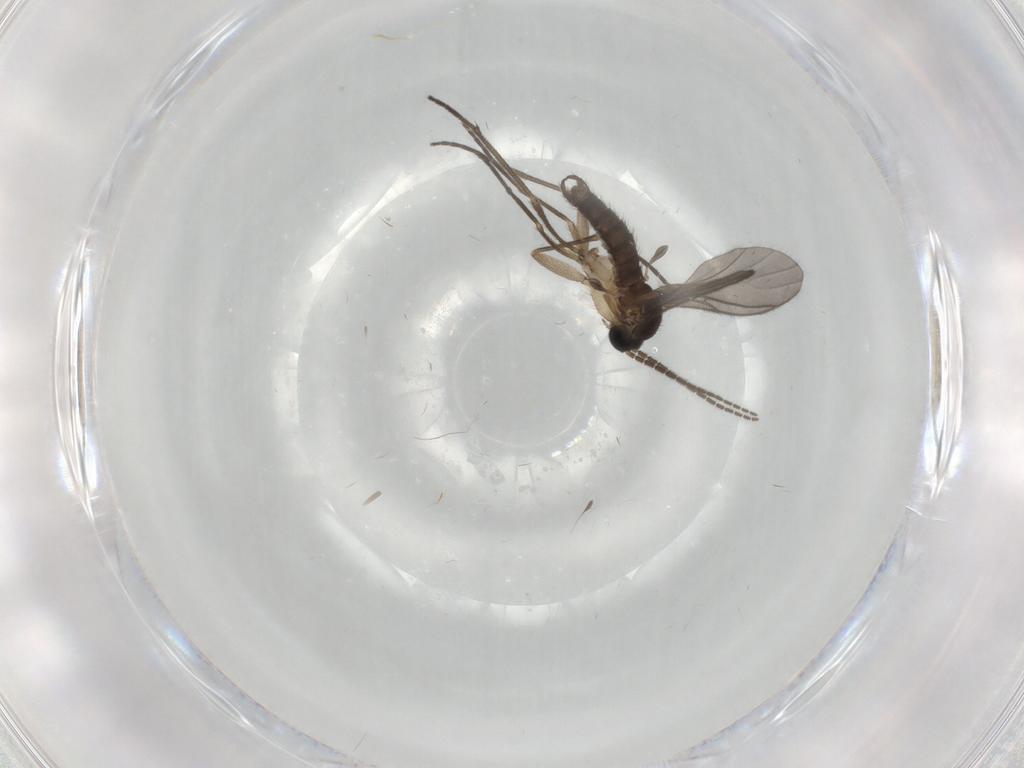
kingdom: Animalia
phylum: Arthropoda
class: Insecta
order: Diptera
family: Sciaridae
